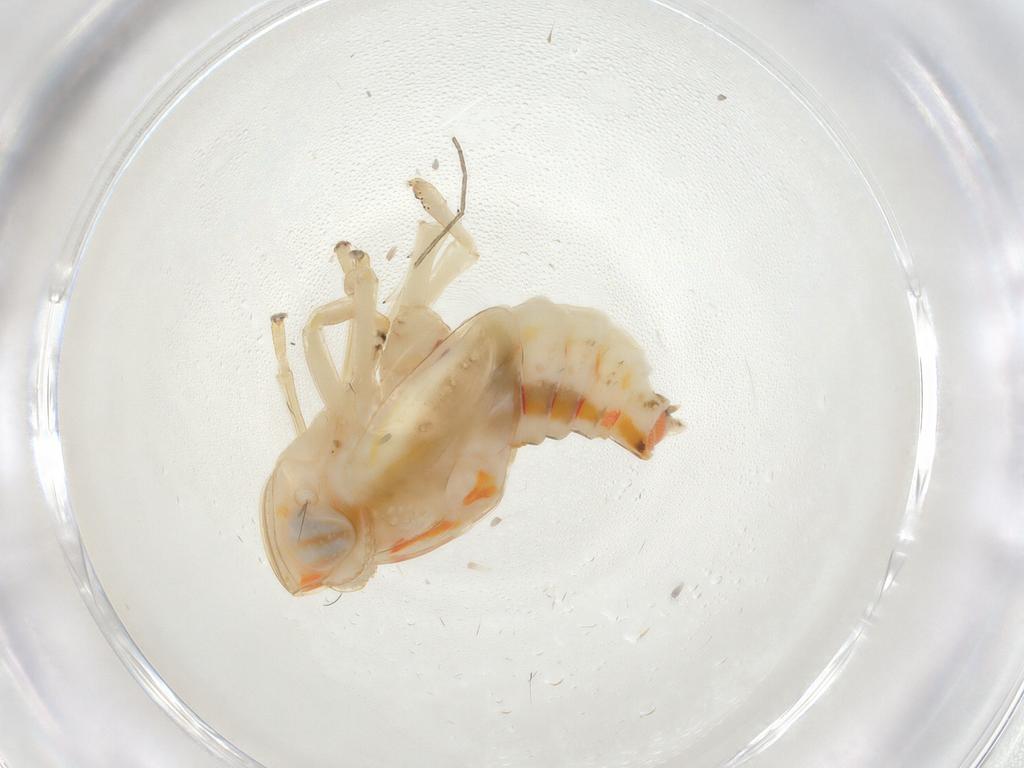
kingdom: Animalia
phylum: Arthropoda
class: Insecta
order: Hemiptera
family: Nogodinidae
